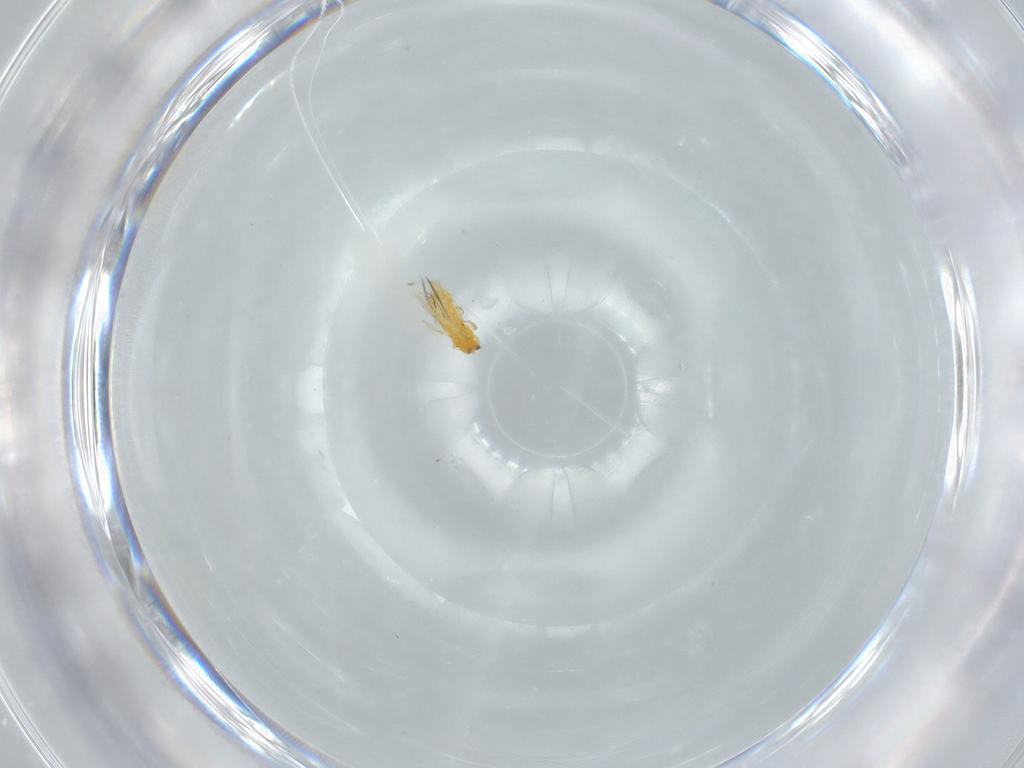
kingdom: Animalia
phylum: Arthropoda
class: Insecta
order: Thysanoptera
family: Thripidae
